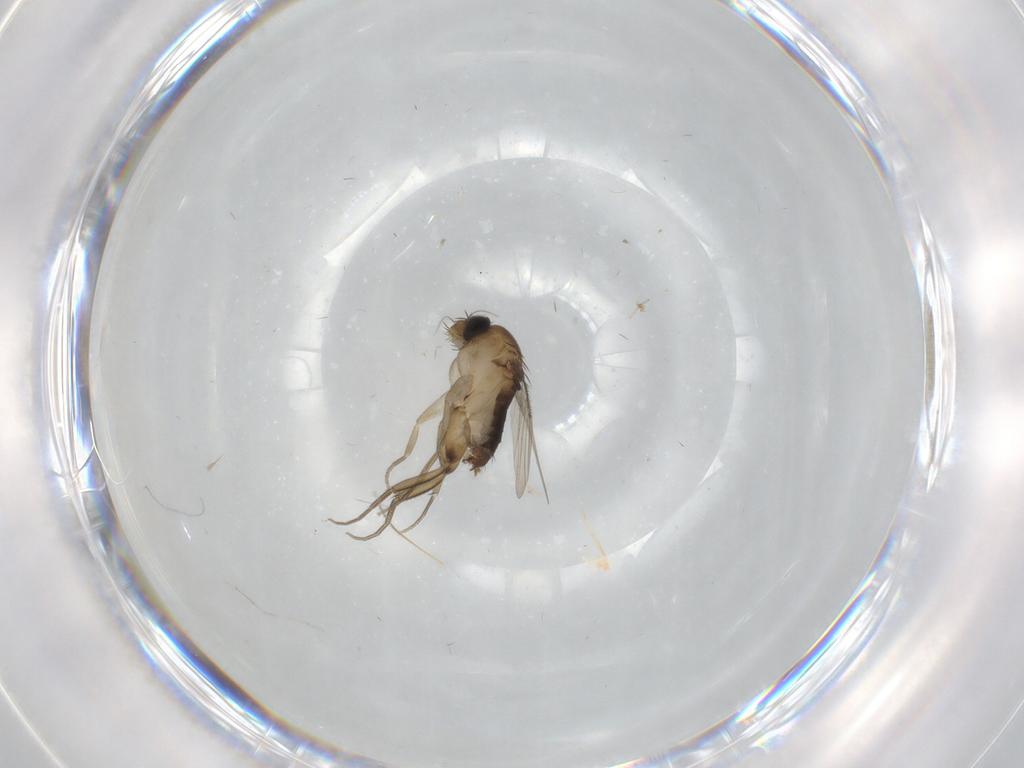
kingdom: Animalia
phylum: Arthropoda
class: Insecta
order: Diptera
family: Phoridae
